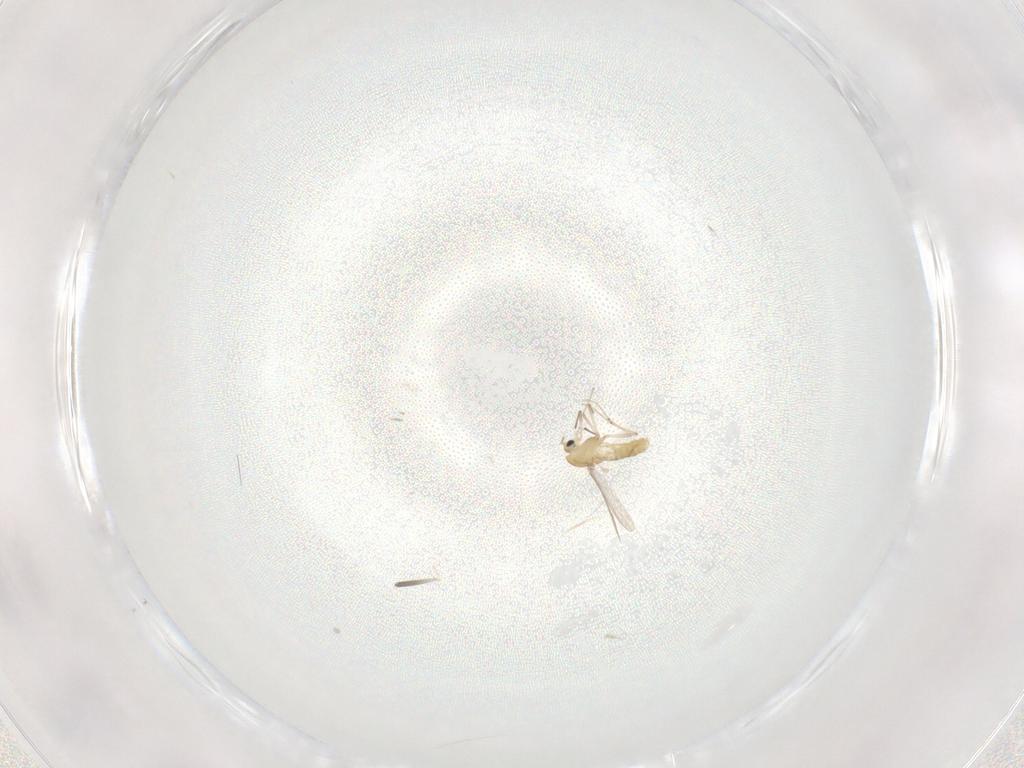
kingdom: Animalia
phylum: Arthropoda
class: Insecta
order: Diptera
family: Chironomidae
